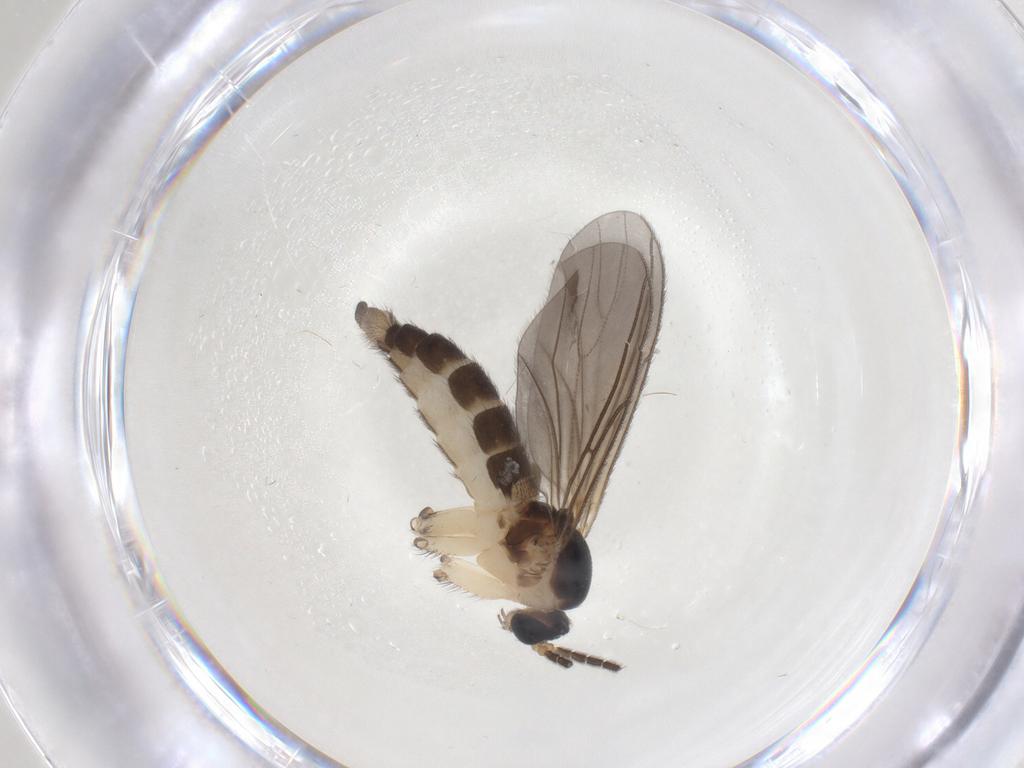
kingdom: Animalia
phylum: Arthropoda
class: Insecta
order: Diptera
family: Sciaridae
